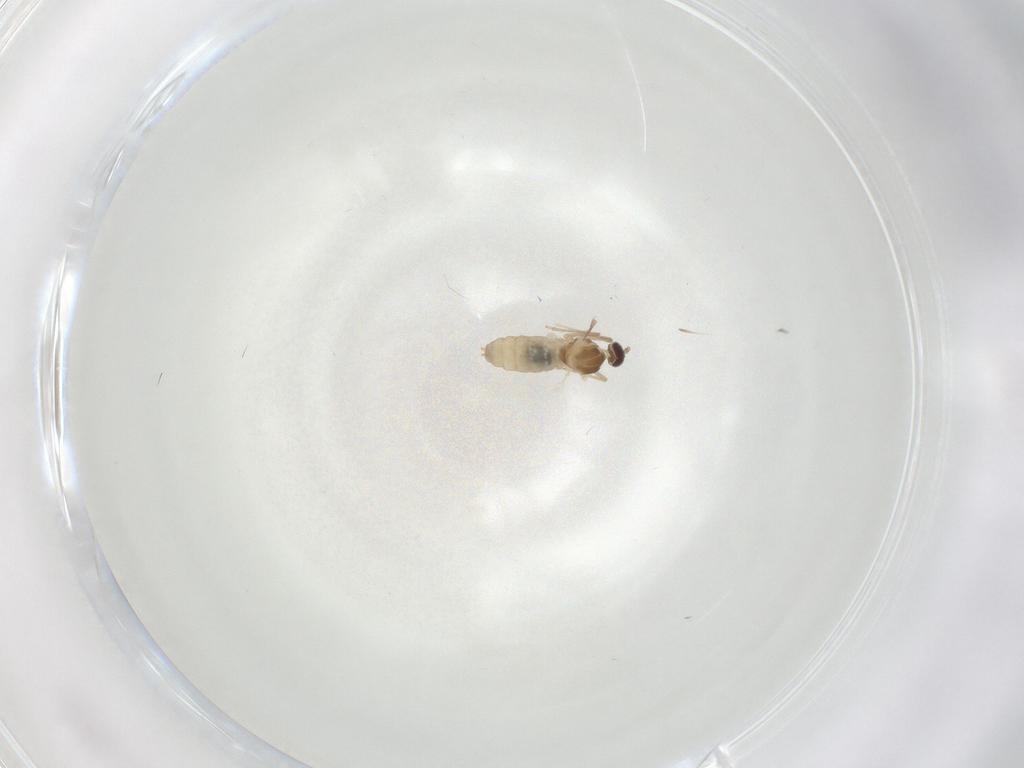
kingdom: Animalia
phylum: Arthropoda
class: Insecta
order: Diptera
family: Cecidomyiidae
